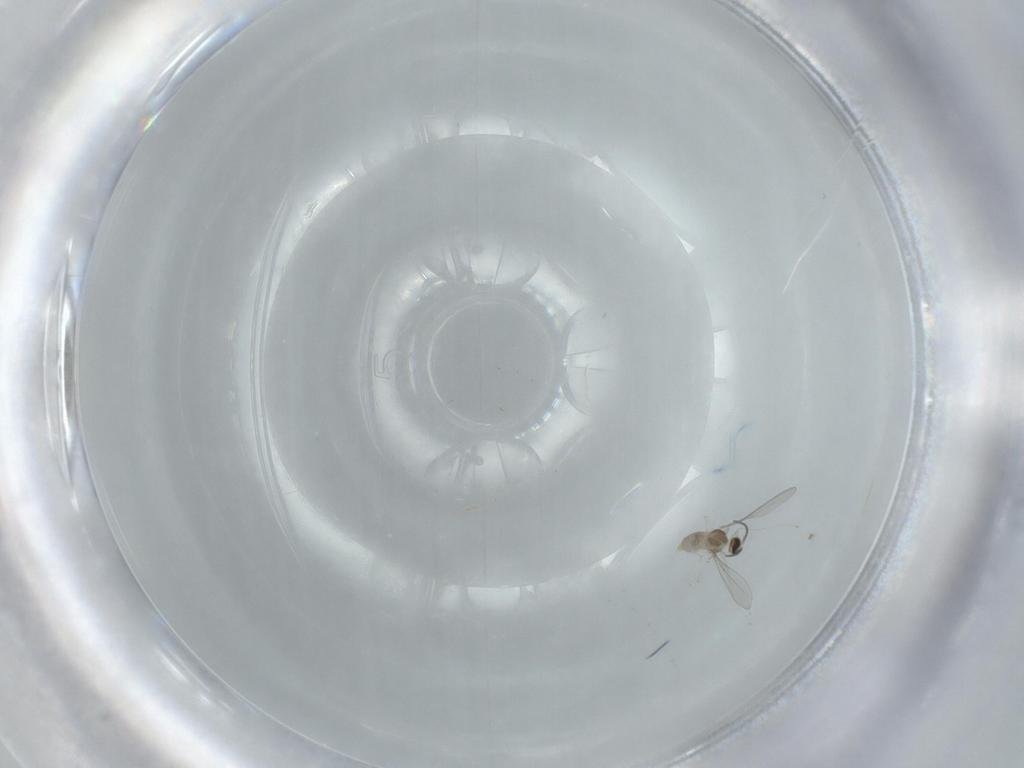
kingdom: Animalia
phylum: Arthropoda
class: Insecta
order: Diptera
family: Cecidomyiidae
